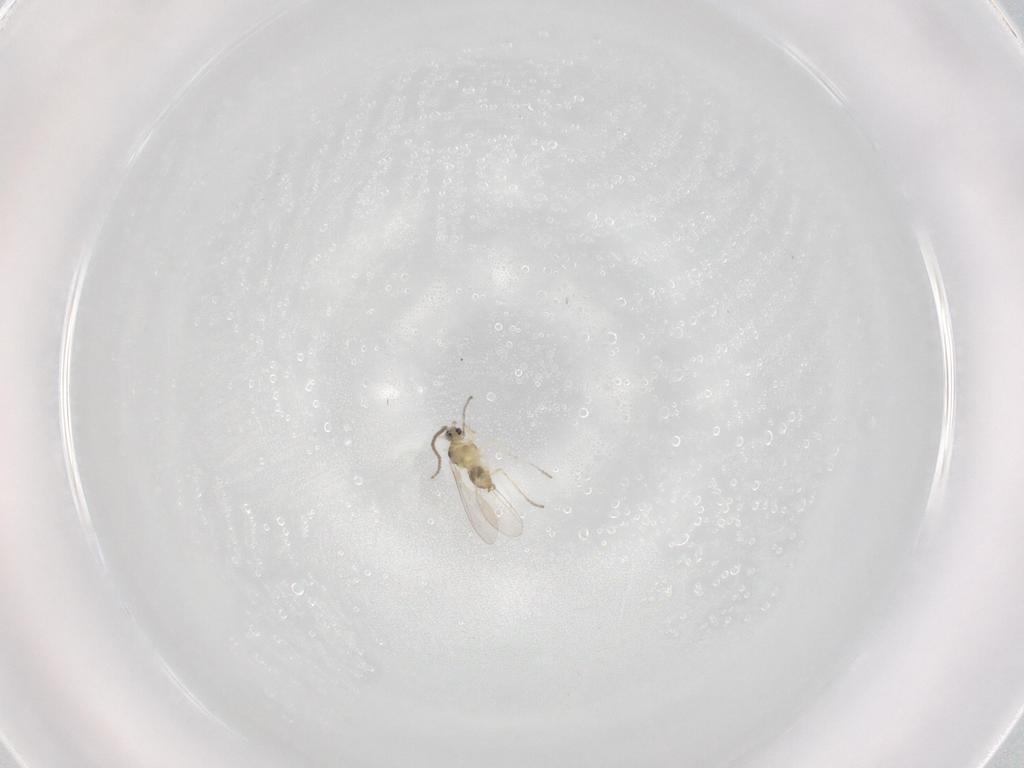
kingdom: Animalia
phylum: Arthropoda
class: Insecta
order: Diptera
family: Cecidomyiidae
